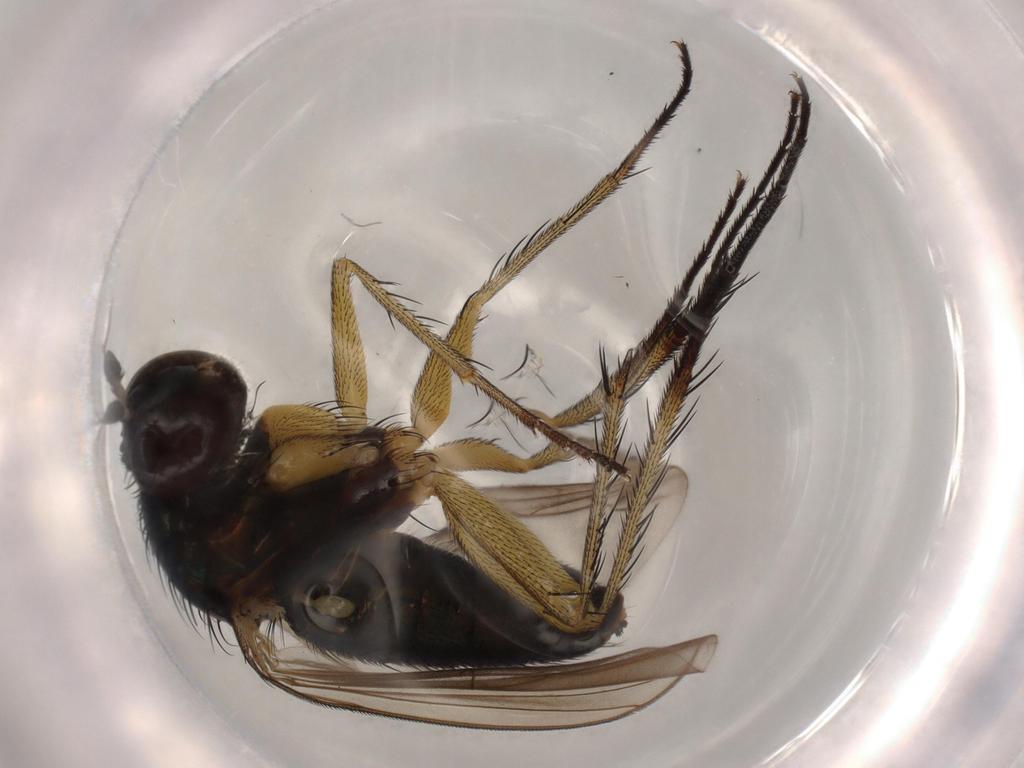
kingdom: Animalia
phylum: Arthropoda
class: Insecta
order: Diptera
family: Dolichopodidae
